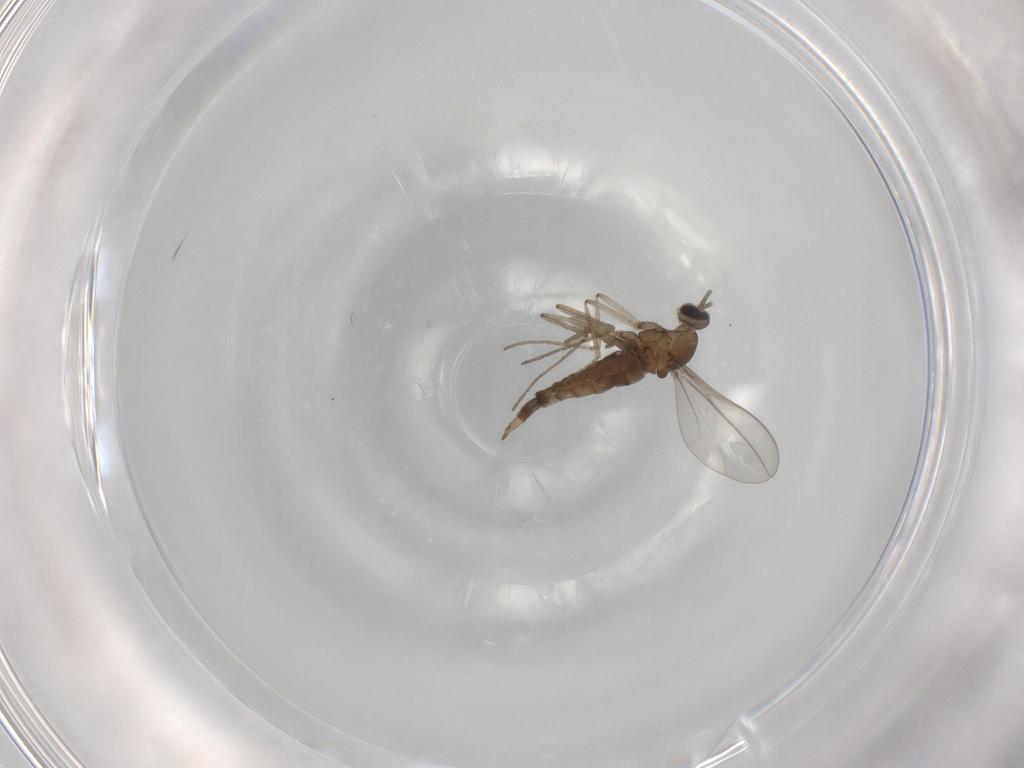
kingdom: Animalia
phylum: Arthropoda
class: Insecta
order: Diptera
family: Cecidomyiidae
